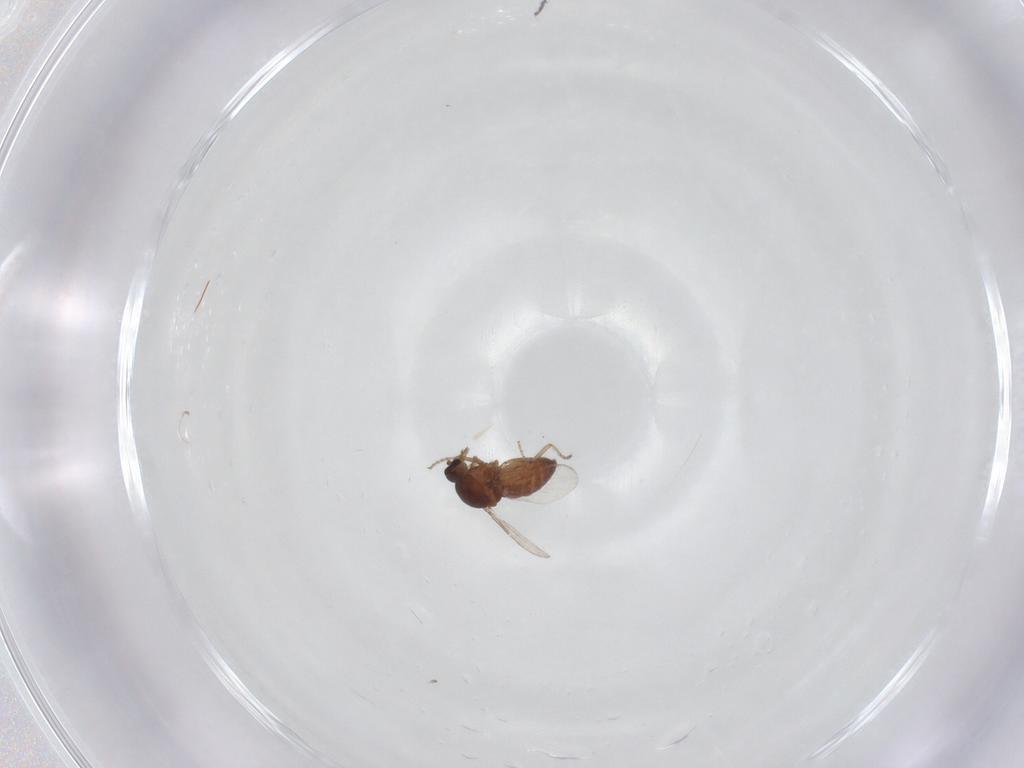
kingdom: Animalia
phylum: Arthropoda
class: Insecta
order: Diptera
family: Ceratopogonidae
